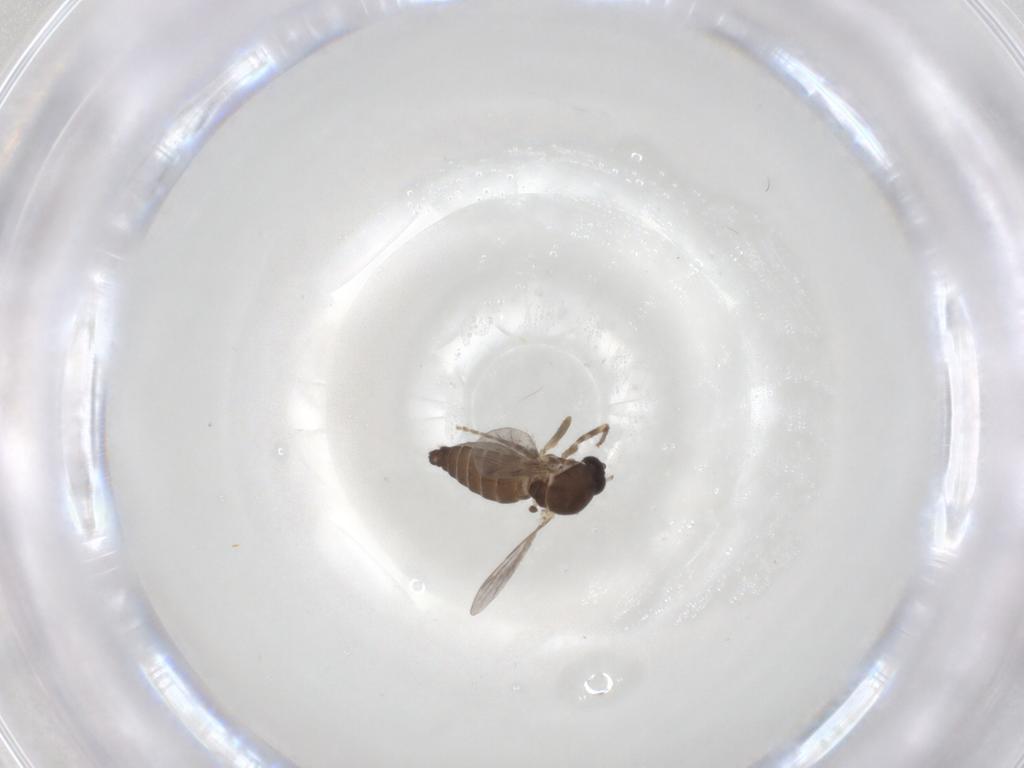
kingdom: Animalia
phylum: Arthropoda
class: Insecta
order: Diptera
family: Ceratopogonidae
